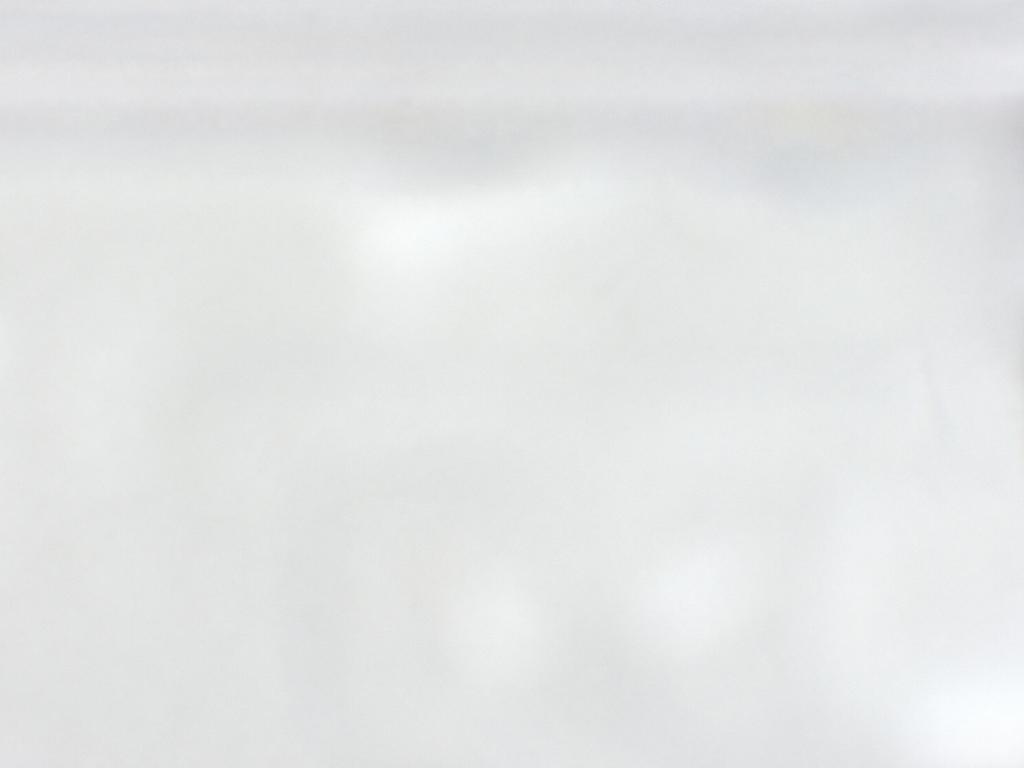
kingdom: Animalia
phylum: Arthropoda
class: Insecta
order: Diptera
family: Cecidomyiidae
